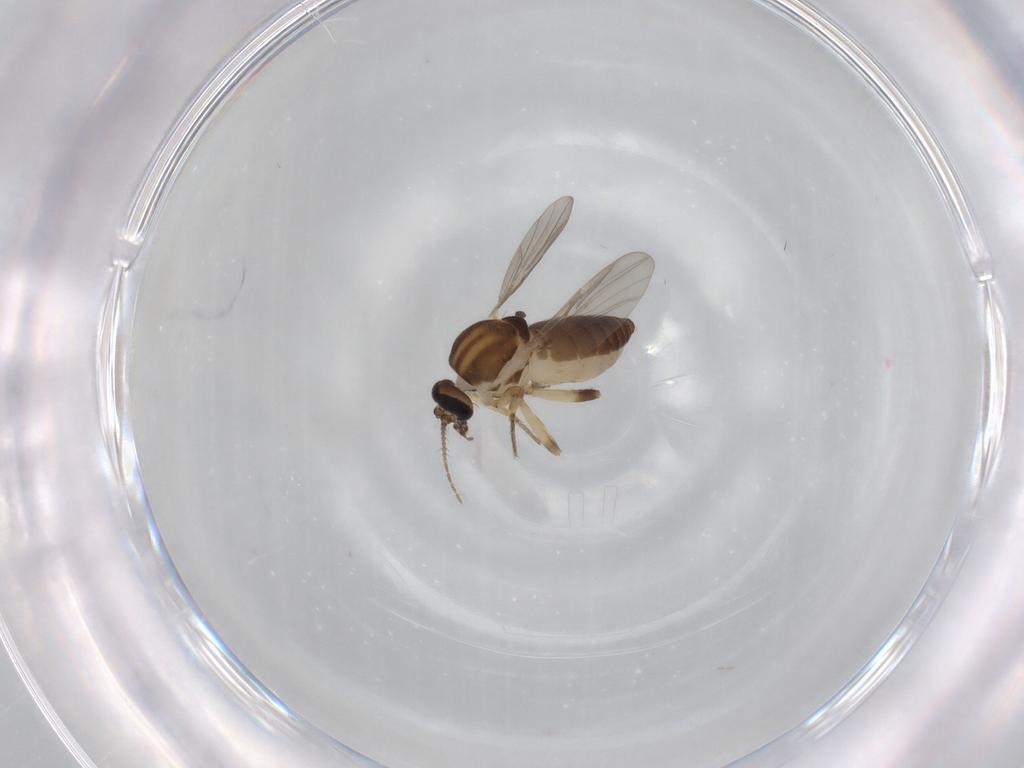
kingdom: Animalia
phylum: Arthropoda
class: Insecta
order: Diptera
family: Ceratopogonidae
